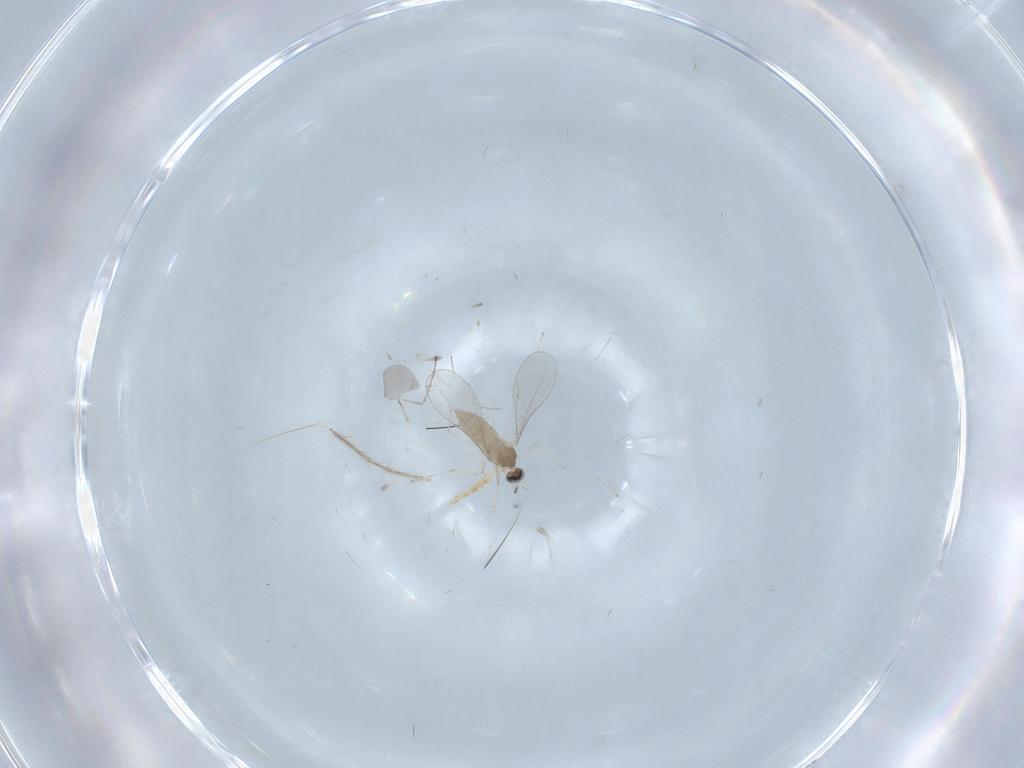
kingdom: Animalia
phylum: Arthropoda
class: Insecta
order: Diptera
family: Cecidomyiidae
